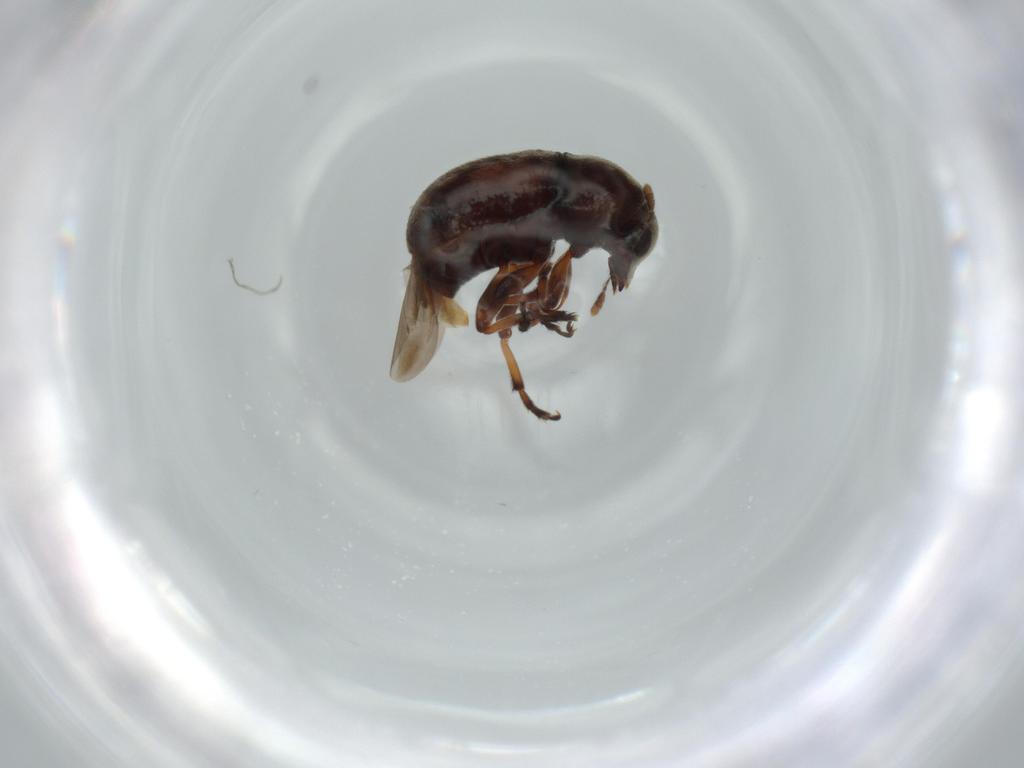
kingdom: Animalia
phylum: Arthropoda
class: Insecta
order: Coleoptera
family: Anthribidae
